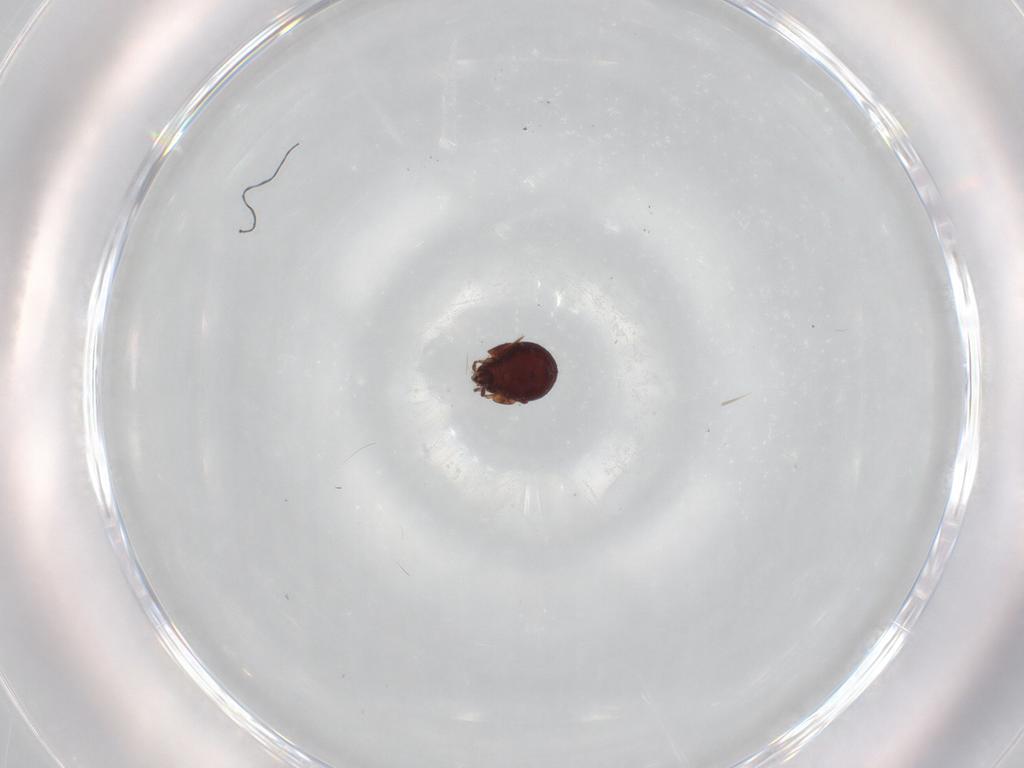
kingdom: Animalia
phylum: Arthropoda
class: Arachnida
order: Sarcoptiformes
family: Humerobatidae
